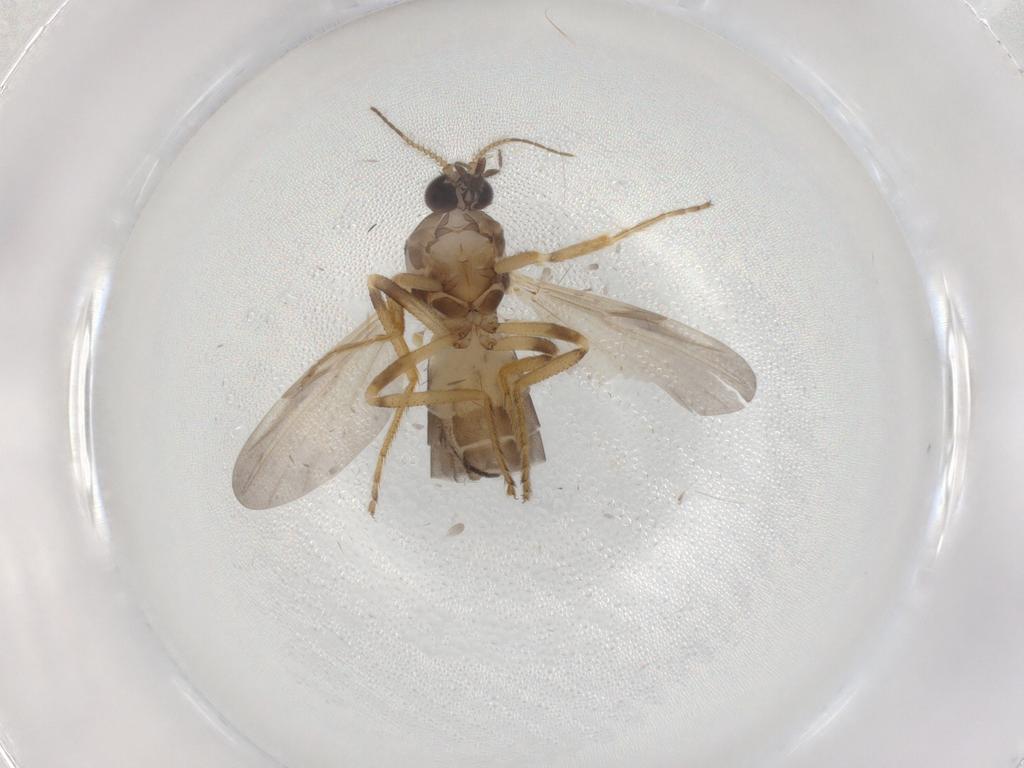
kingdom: Animalia
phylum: Arthropoda
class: Insecta
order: Diptera
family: Ceratopogonidae
